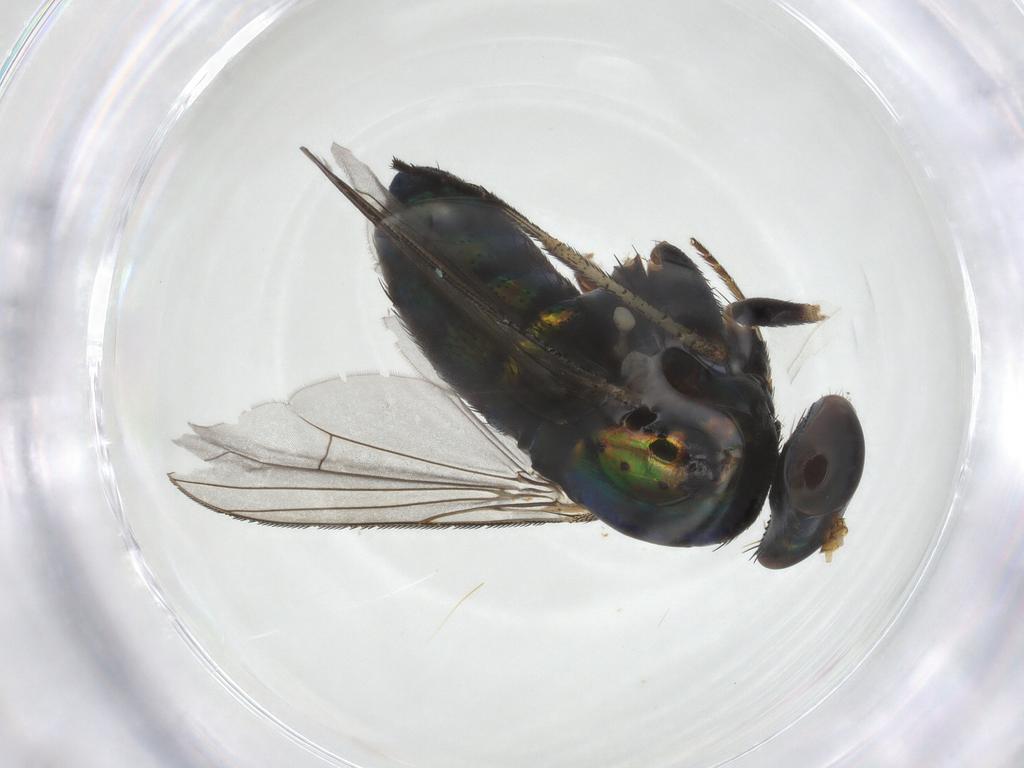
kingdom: Animalia
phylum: Arthropoda
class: Insecta
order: Diptera
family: Dolichopodidae
